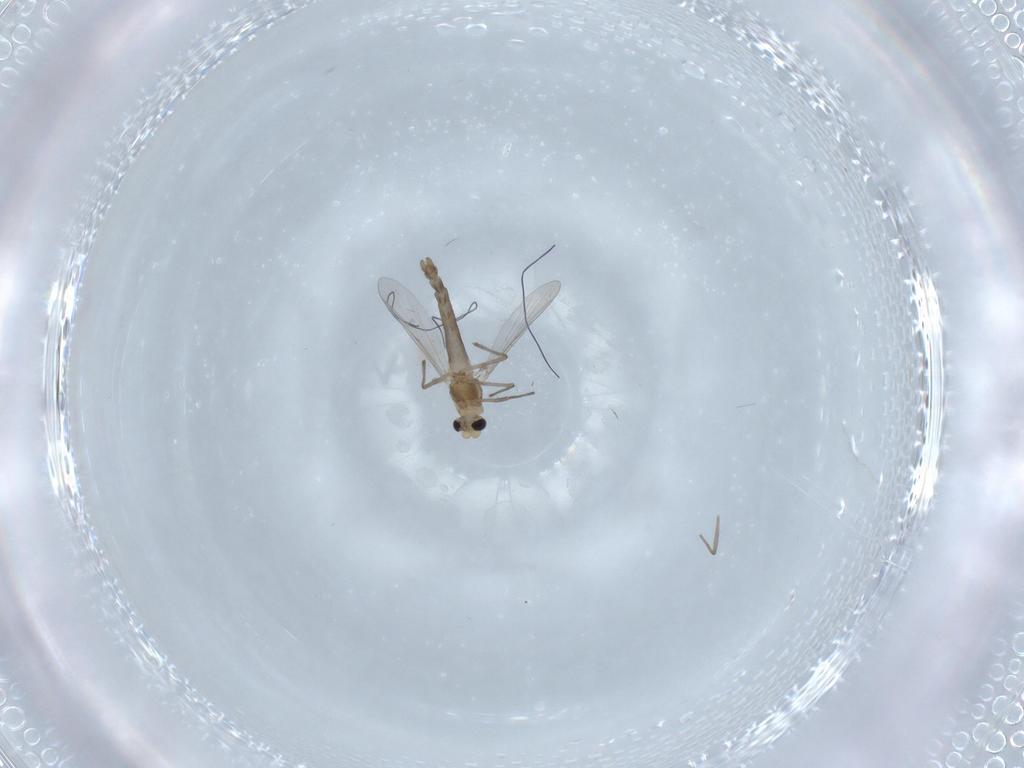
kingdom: Animalia
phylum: Arthropoda
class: Insecta
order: Diptera
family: Chironomidae
